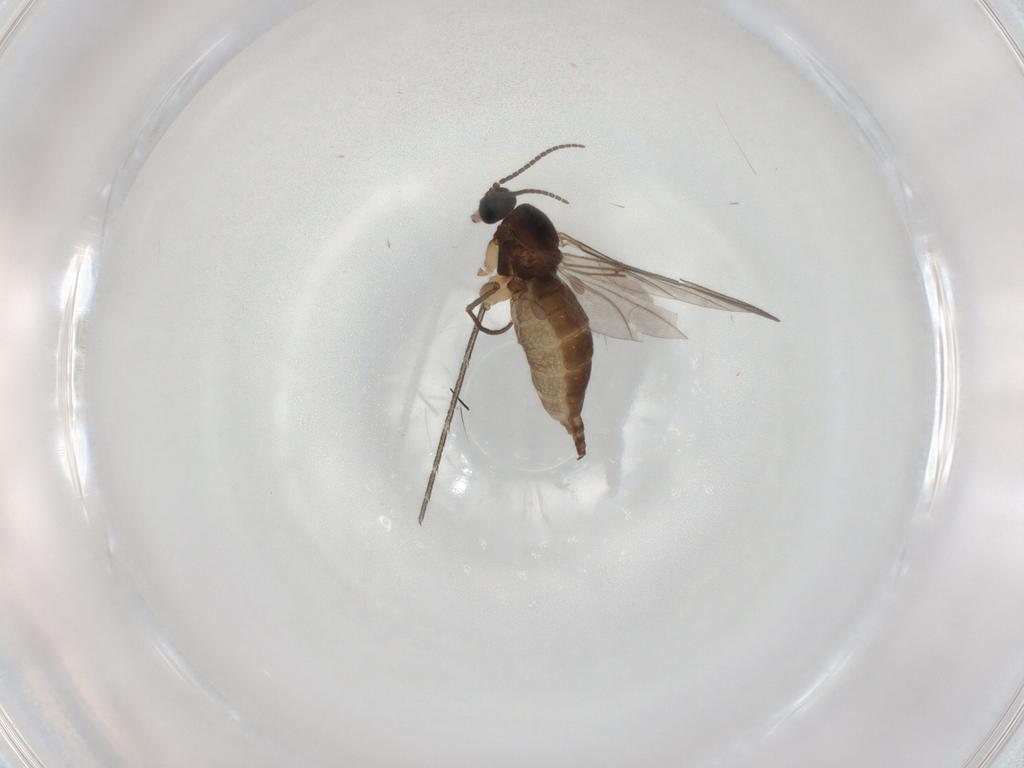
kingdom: Animalia
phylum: Arthropoda
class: Insecta
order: Diptera
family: Sciaridae
